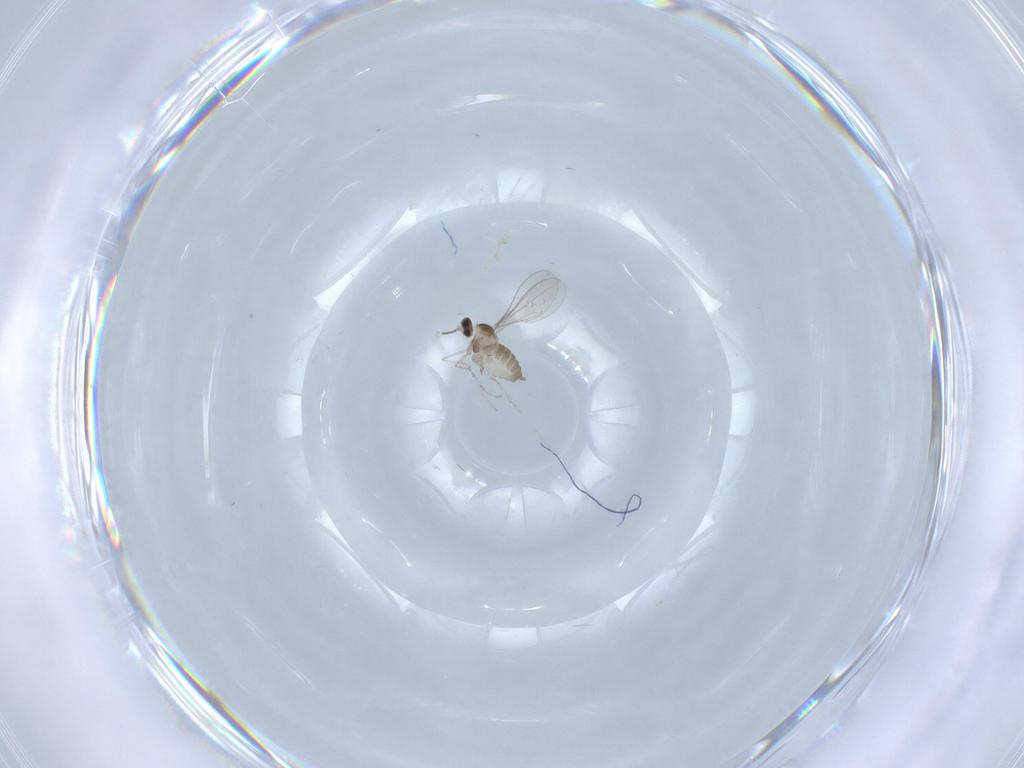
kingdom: Animalia
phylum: Arthropoda
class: Insecta
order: Diptera
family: Cecidomyiidae
